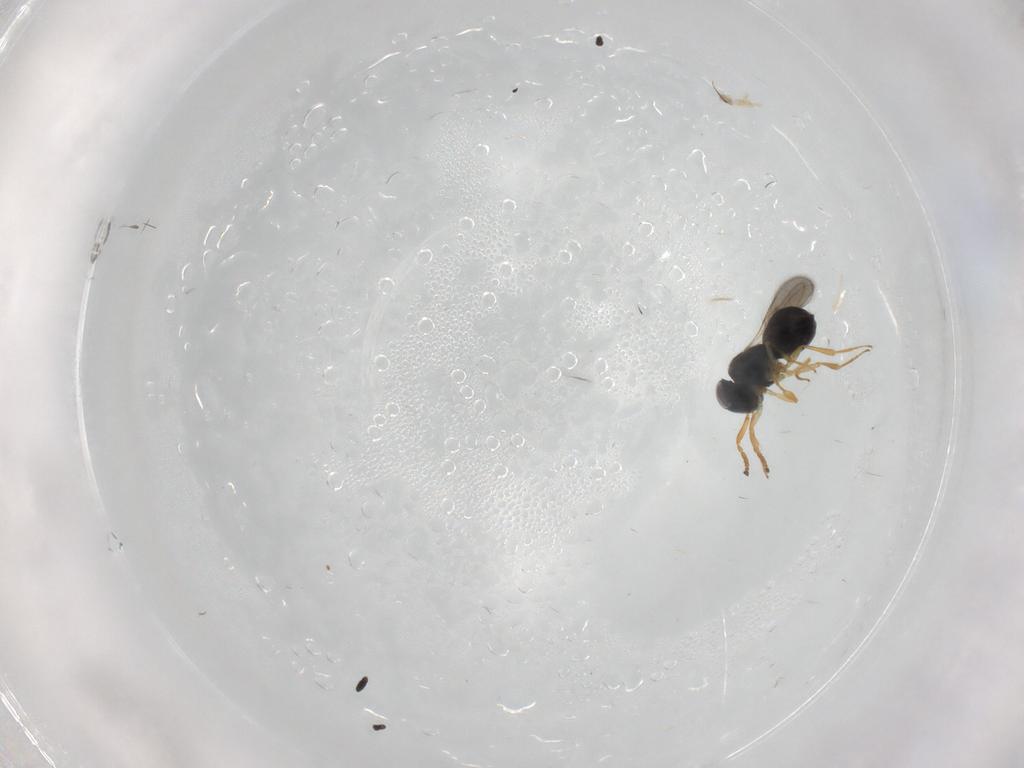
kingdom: Animalia
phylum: Arthropoda
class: Insecta
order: Hymenoptera
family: Scelionidae
